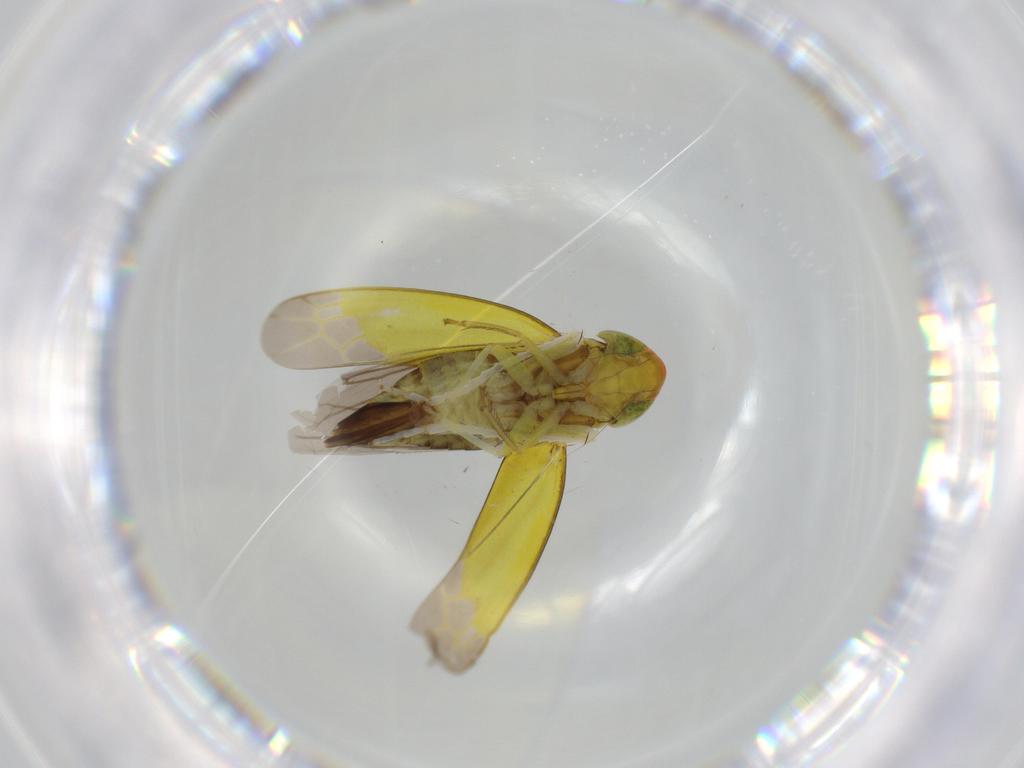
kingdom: Animalia
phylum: Arthropoda
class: Insecta
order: Hemiptera
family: Cicadellidae
